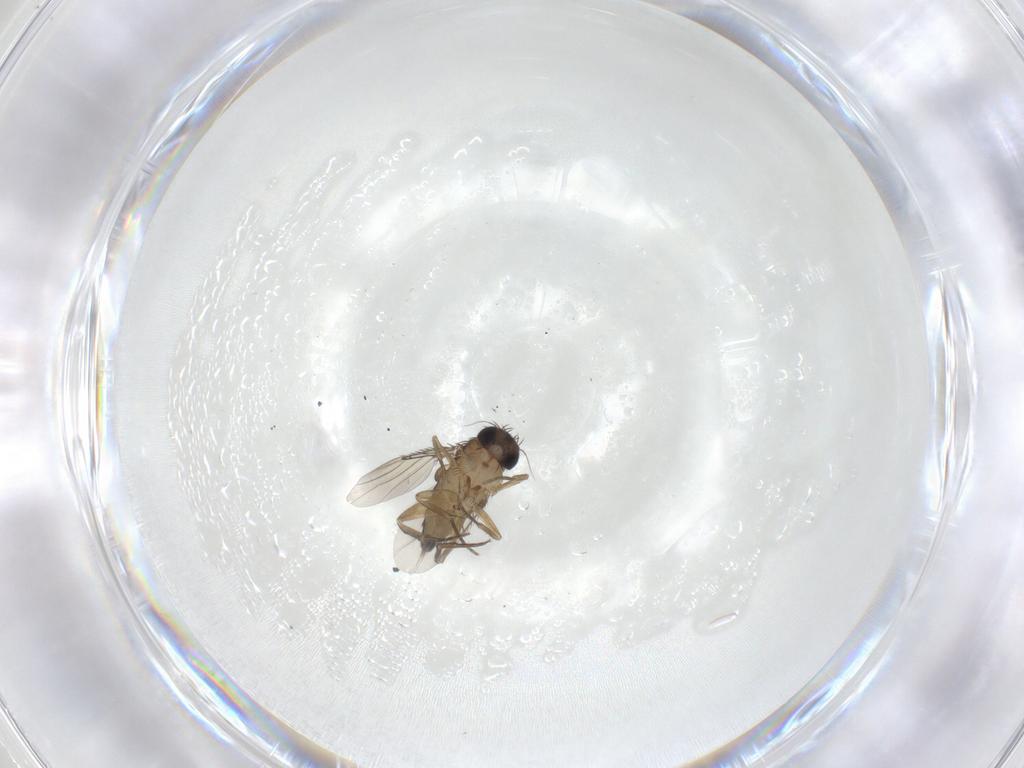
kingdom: Animalia
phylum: Arthropoda
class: Insecta
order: Diptera
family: Phoridae
